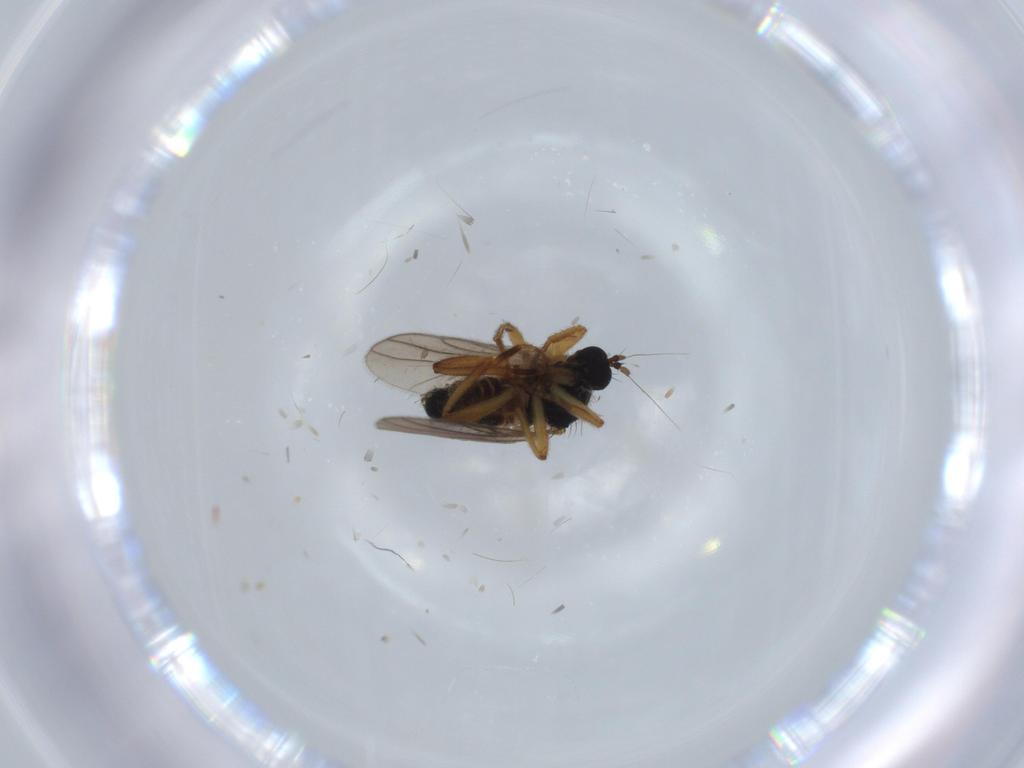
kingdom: Animalia
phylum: Arthropoda
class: Insecta
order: Diptera
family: Hybotidae
